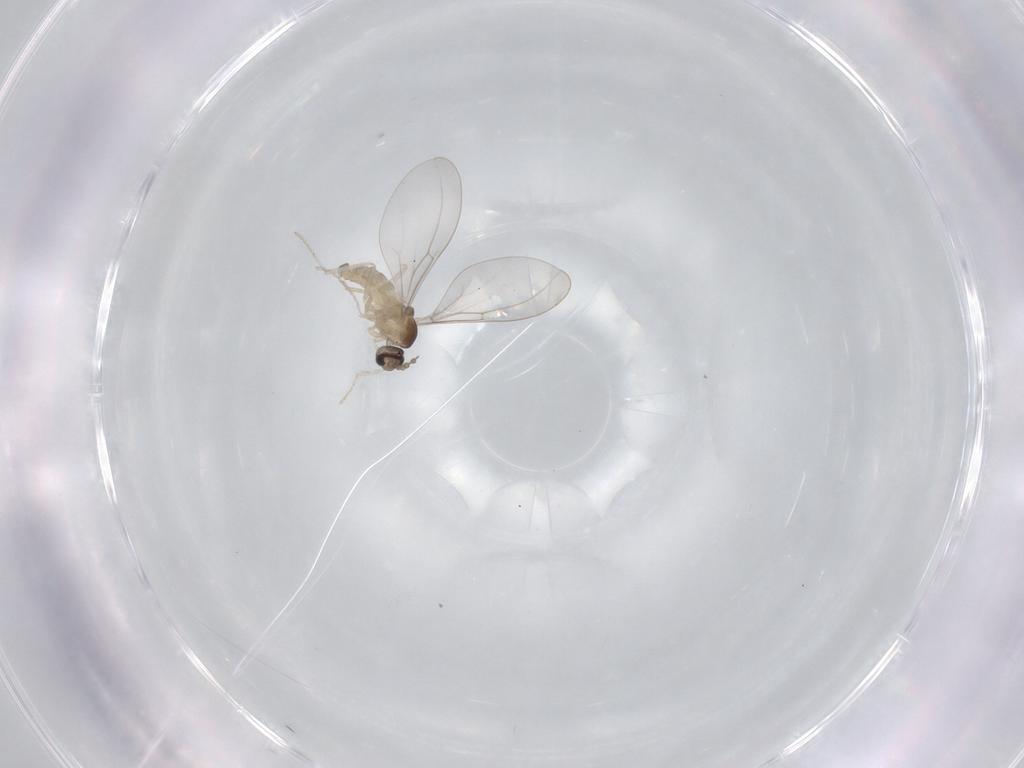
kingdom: Animalia
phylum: Arthropoda
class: Insecta
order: Diptera
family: Cecidomyiidae
